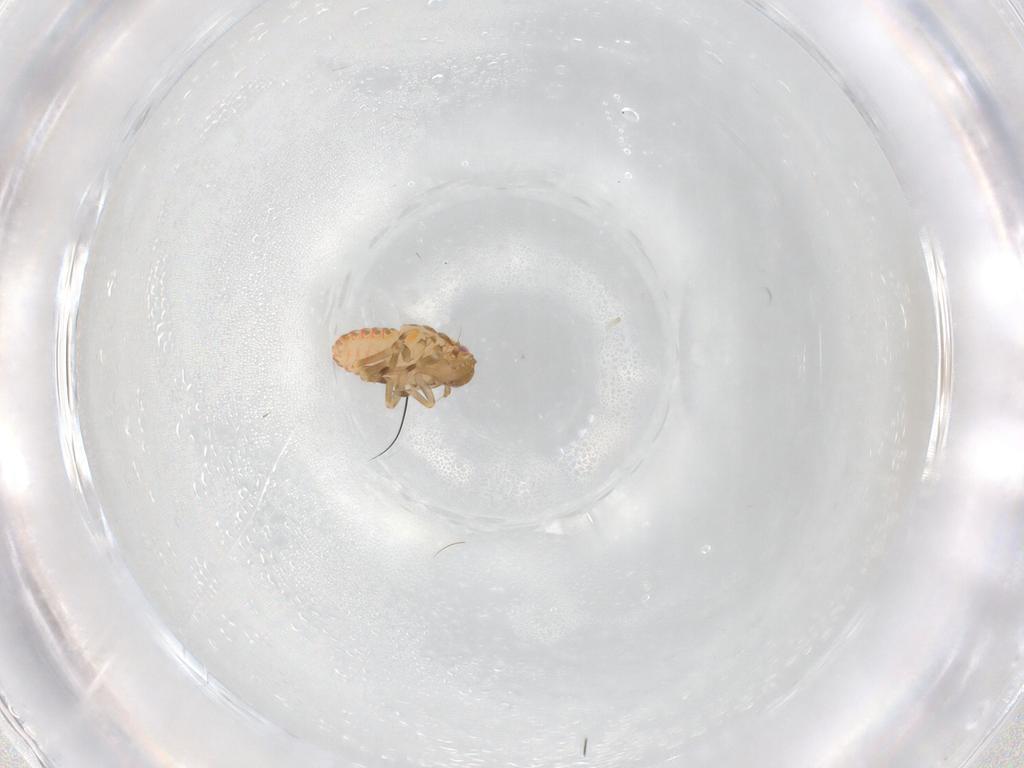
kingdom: Animalia
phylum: Arthropoda
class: Insecta
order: Hemiptera
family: Flatidae
